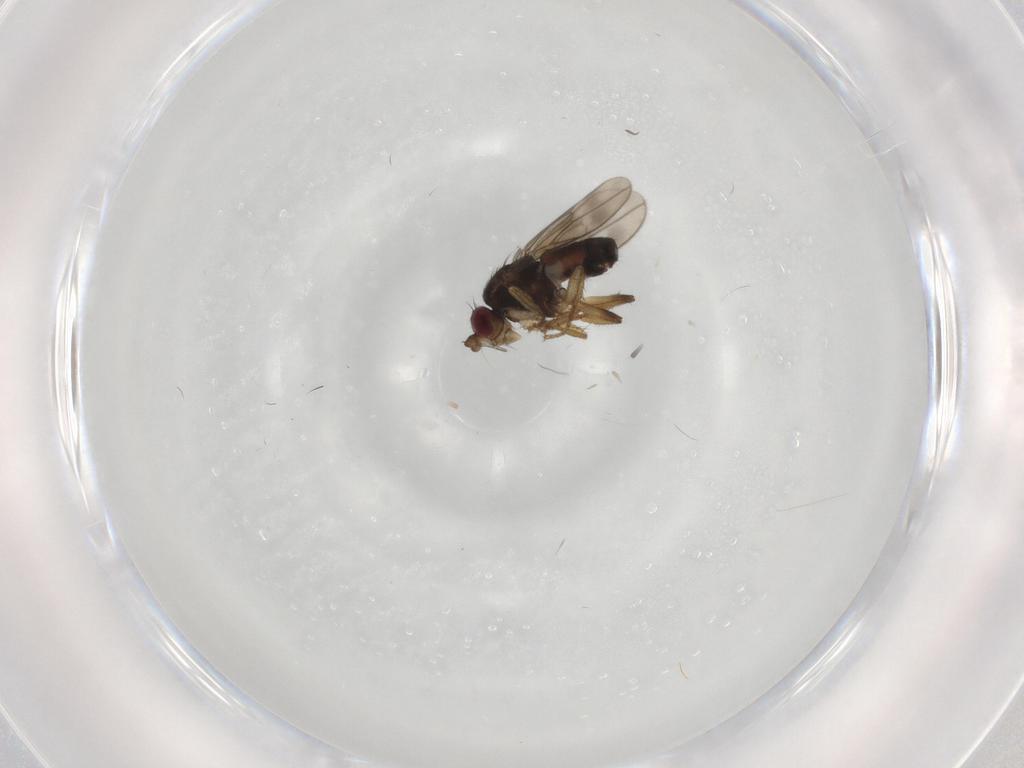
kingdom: Animalia
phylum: Arthropoda
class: Insecta
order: Diptera
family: Sphaeroceridae
